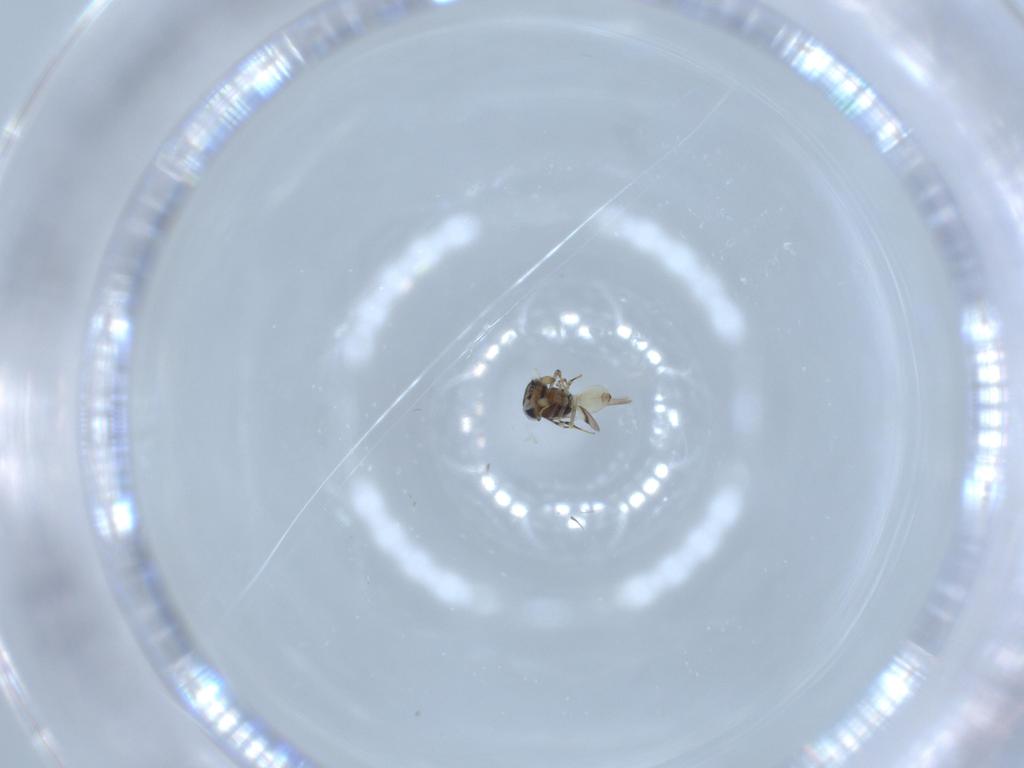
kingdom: Animalia
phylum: Arthropoda
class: Insecta
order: Hymenoptera
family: Scelionidae
